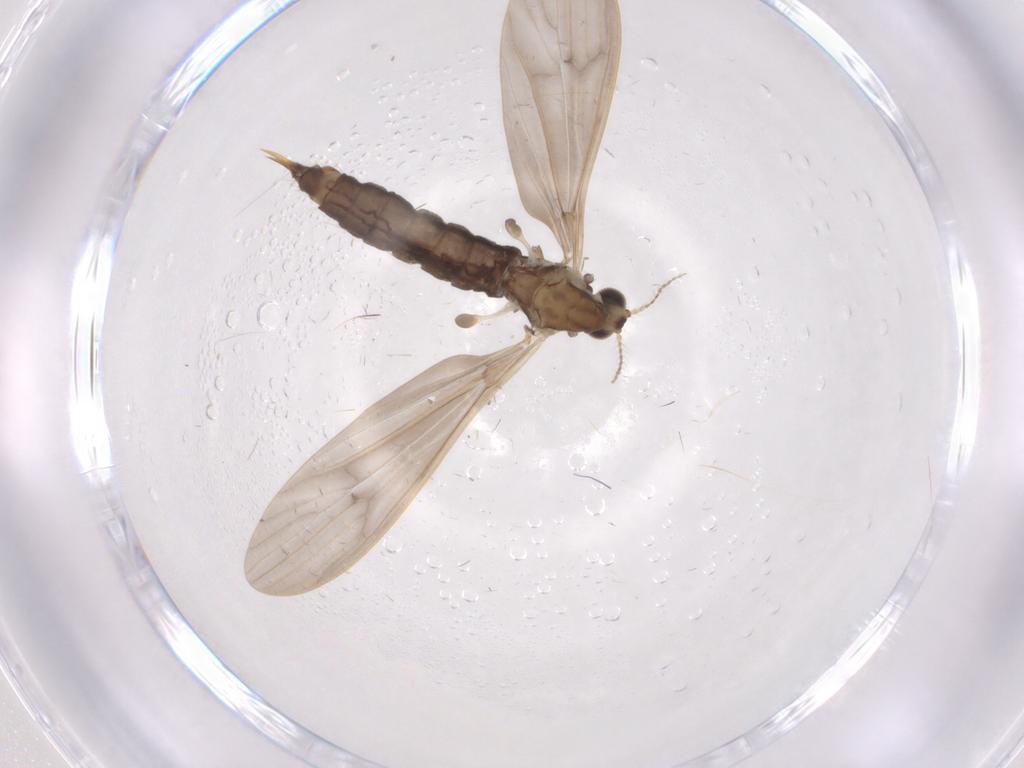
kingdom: Animalia
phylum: Arthropoda
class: Insecta
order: Diptera
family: Limoniidae
